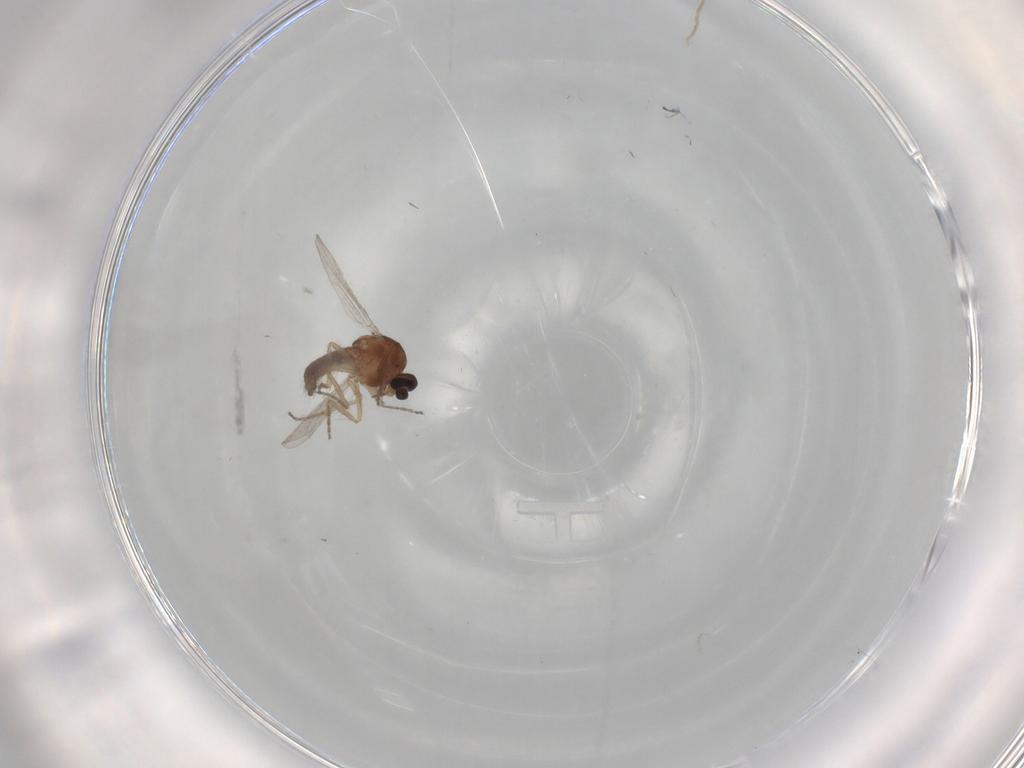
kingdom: Animalia
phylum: Arthropoda
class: Insecta
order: Diptera
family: Ceratopogonidae
